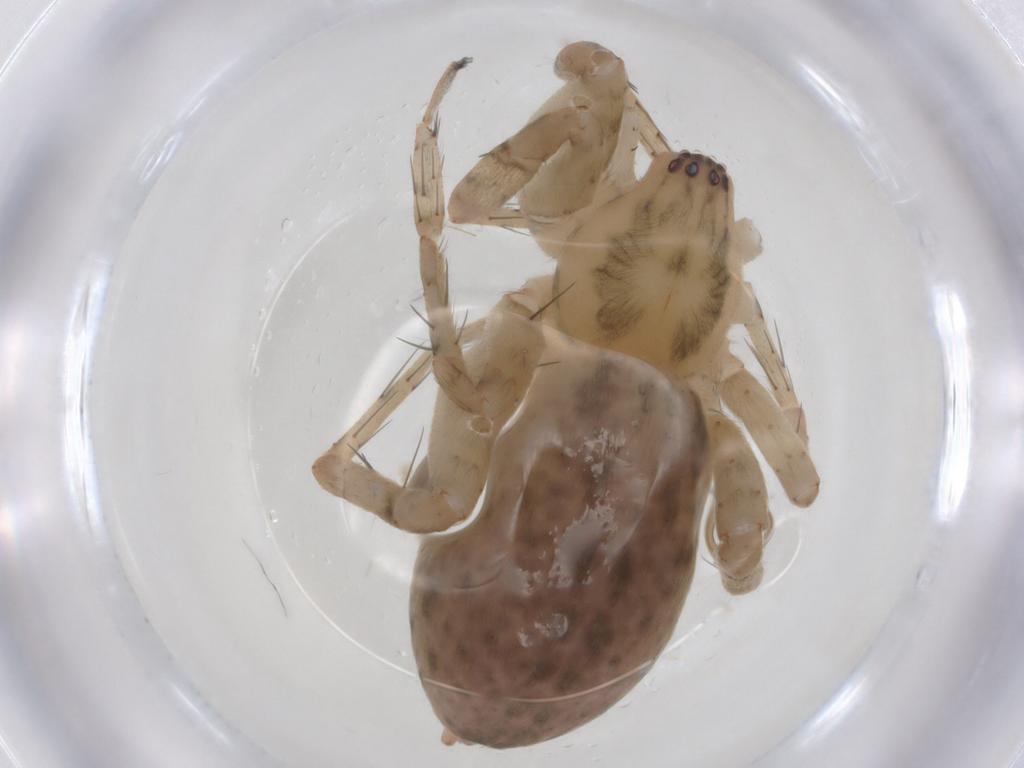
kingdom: Animalia
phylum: Arthropoda
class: Arachnida
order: Araneae
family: Anyphaenidae
